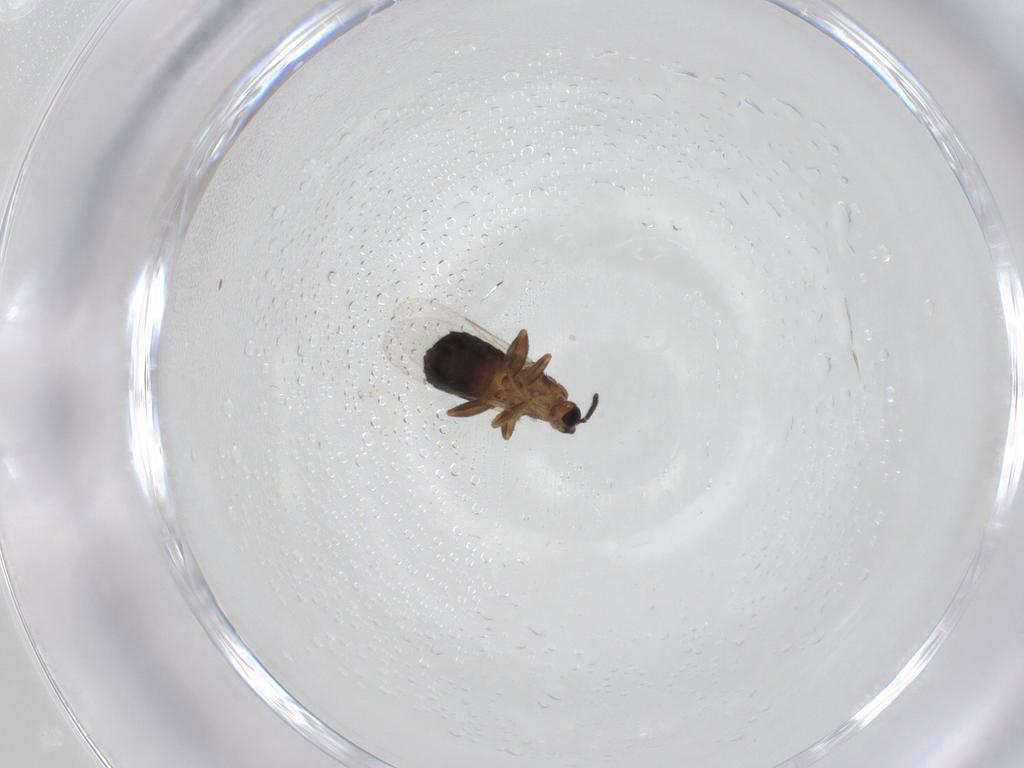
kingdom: Animalia
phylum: Arthropoda
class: Insecta
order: Diptera
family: Scatopsidae
